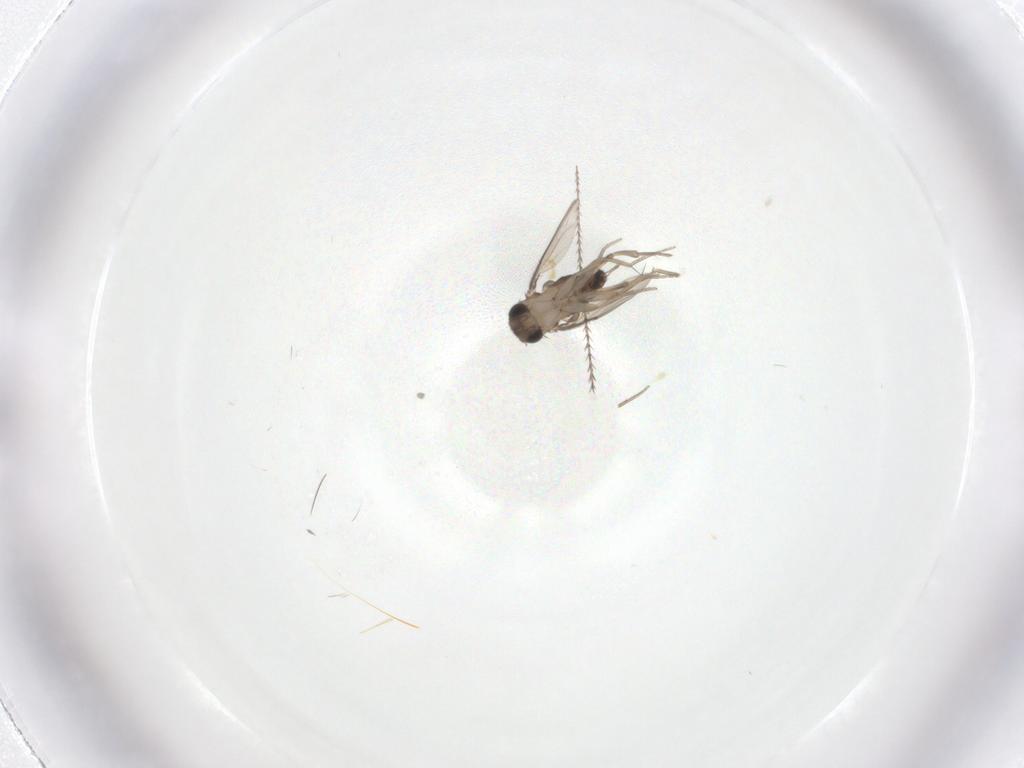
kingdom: Animalia
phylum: Arthropoda
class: Insecta
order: Diptera
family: Phoridae
